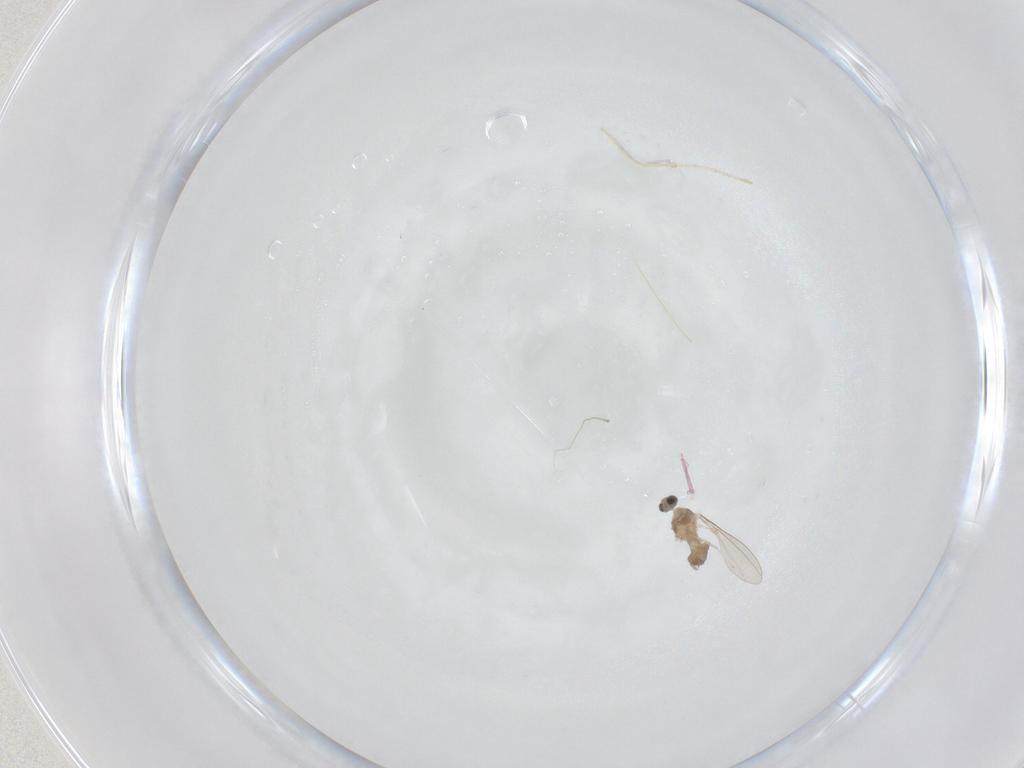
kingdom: Animalia
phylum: Arthropoda
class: Insecta
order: Diptera
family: Cecidomyiidae
